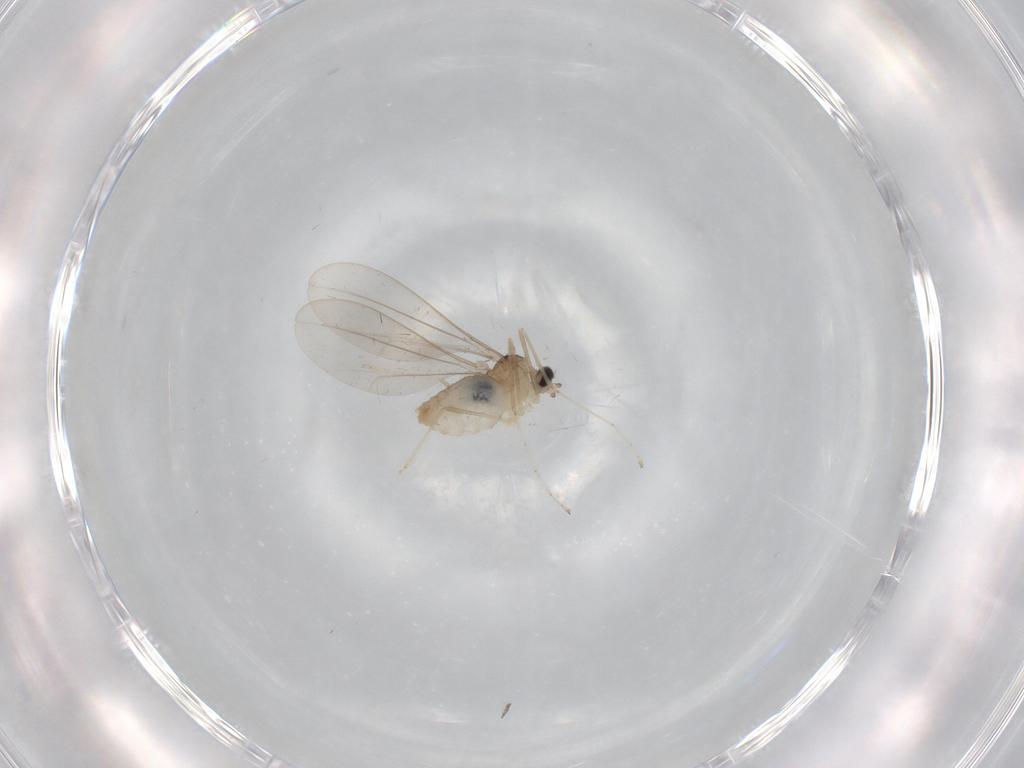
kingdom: Animalia
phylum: Arthropoda
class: Insecta
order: Diptera
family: Cecidomyiidae
